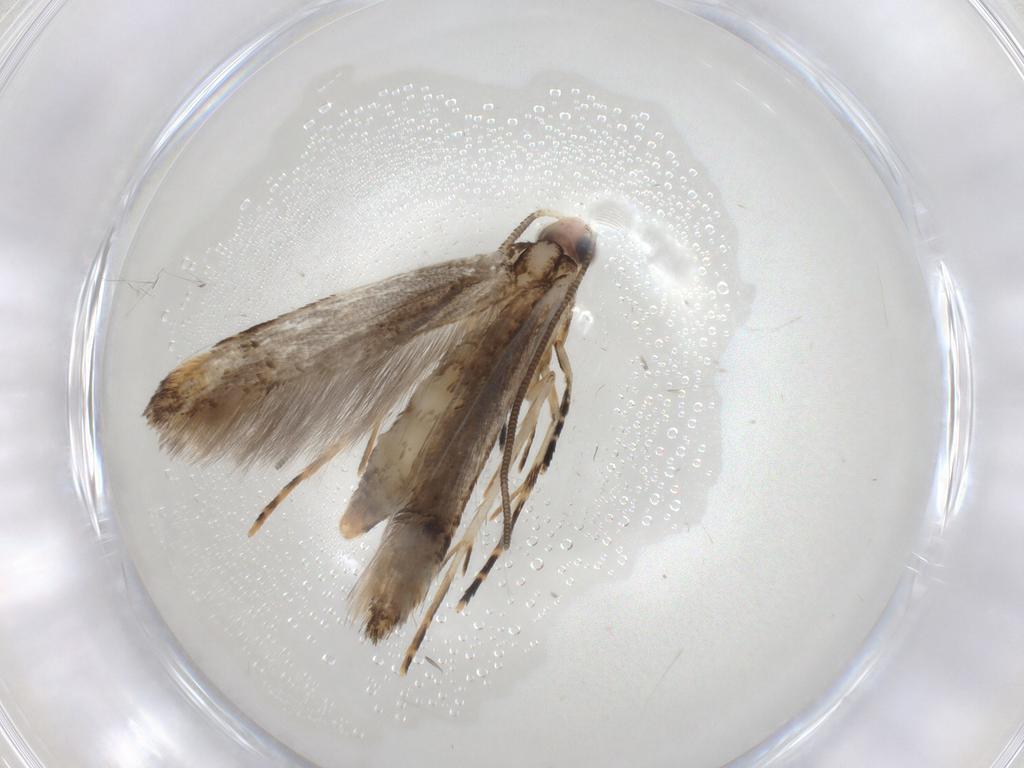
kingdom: Animalia
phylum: Arthropoda
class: Insecta
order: Lepidoptera
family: Tineidae
